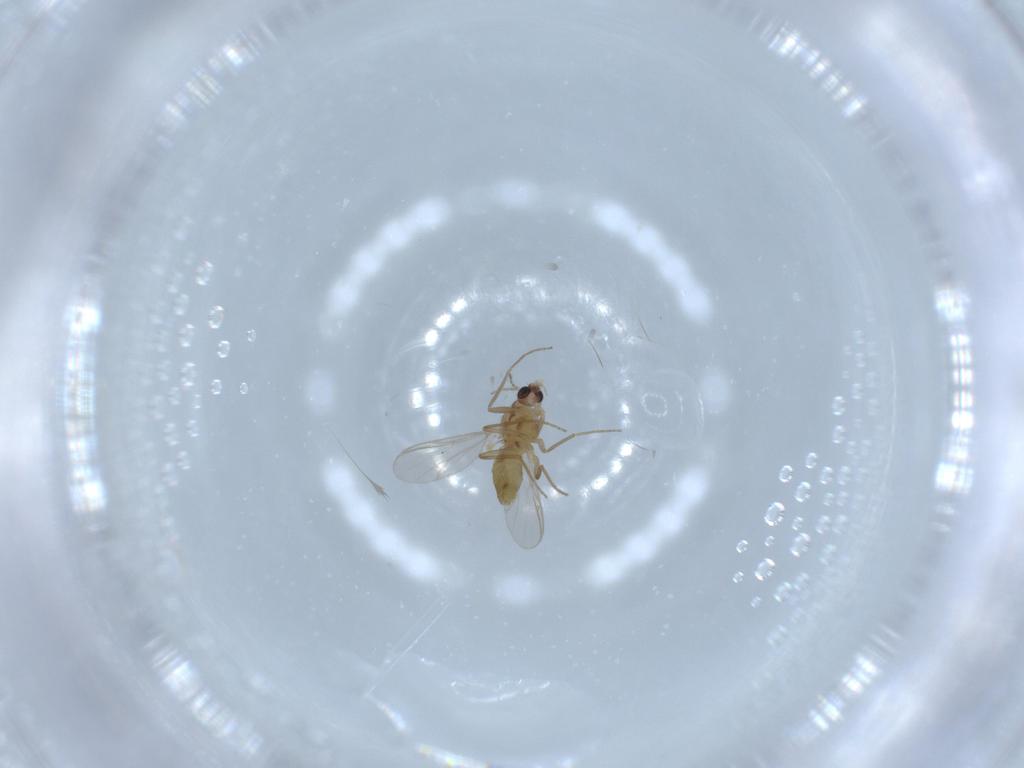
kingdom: Animalia
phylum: Arthropoda
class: Insecta
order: Diptera
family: Chironomidae
